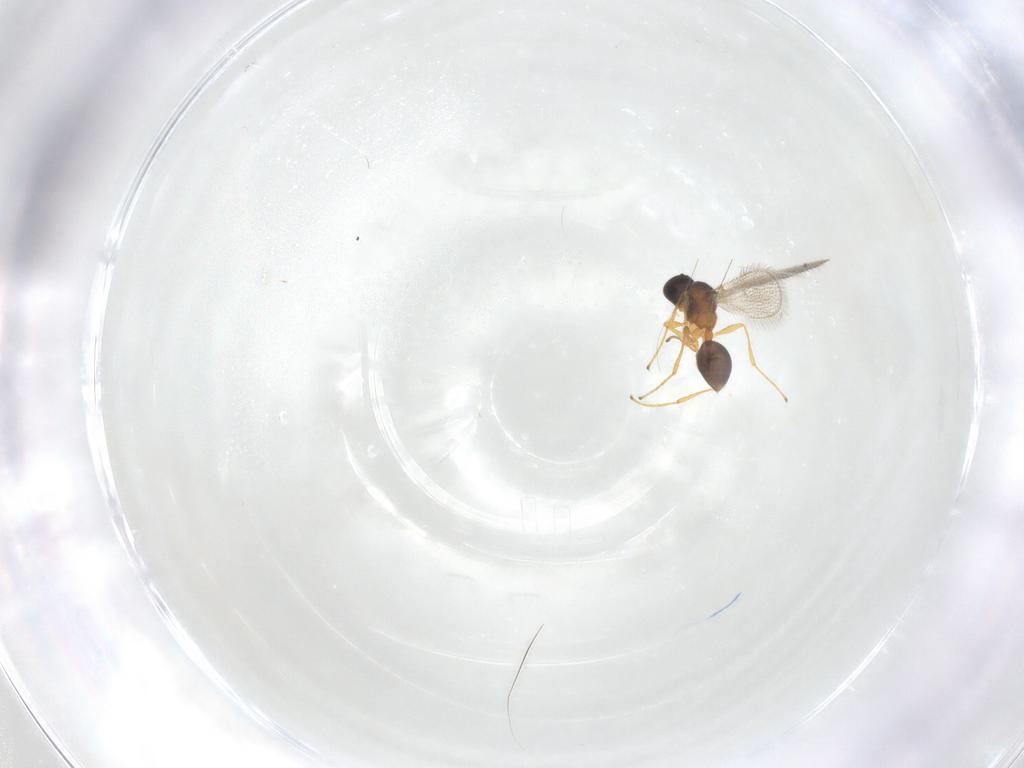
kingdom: Animalia
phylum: Arthropoda
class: Insecta
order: Hymenoptera
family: Diapriidae
